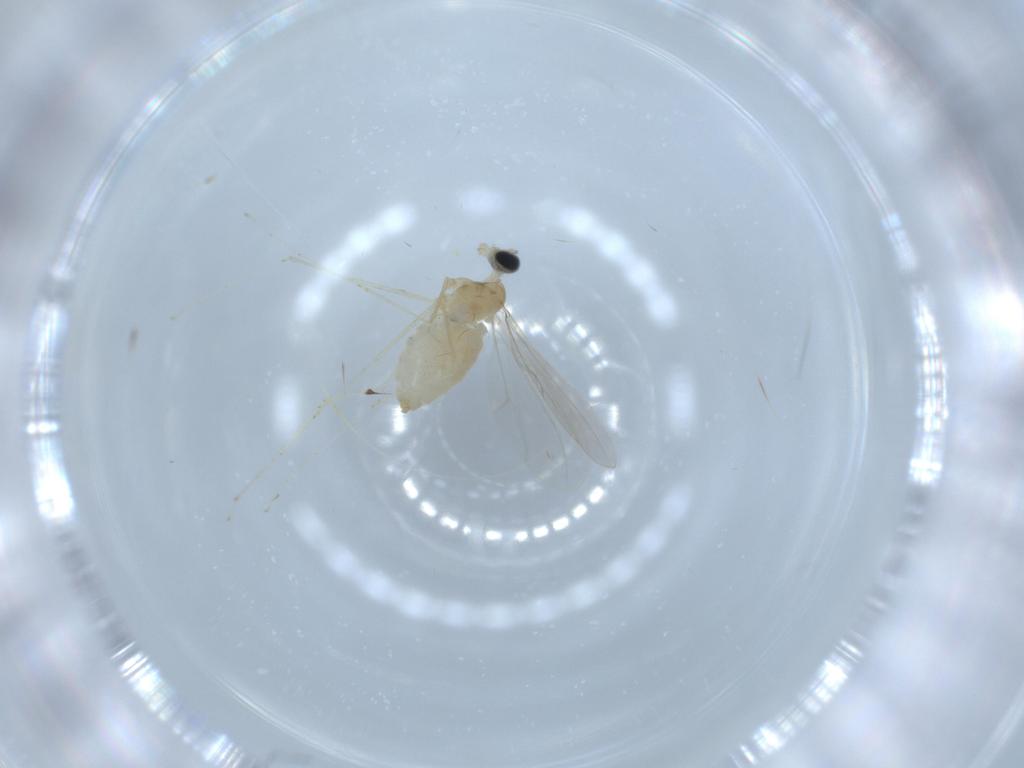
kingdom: Animalia
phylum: Arthropoda
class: Insecta
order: Diptera
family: Cecidomyiidae
